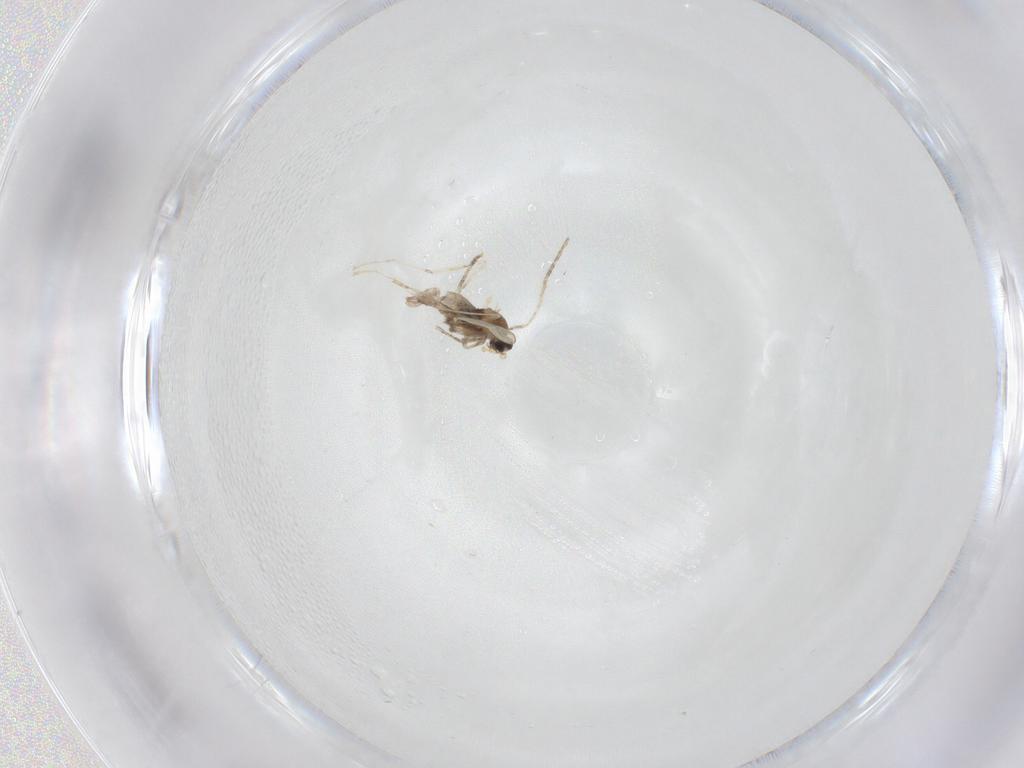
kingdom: Animalia
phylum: Arthropoda
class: Insecta
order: Diptera
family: Cecidomyiidae
